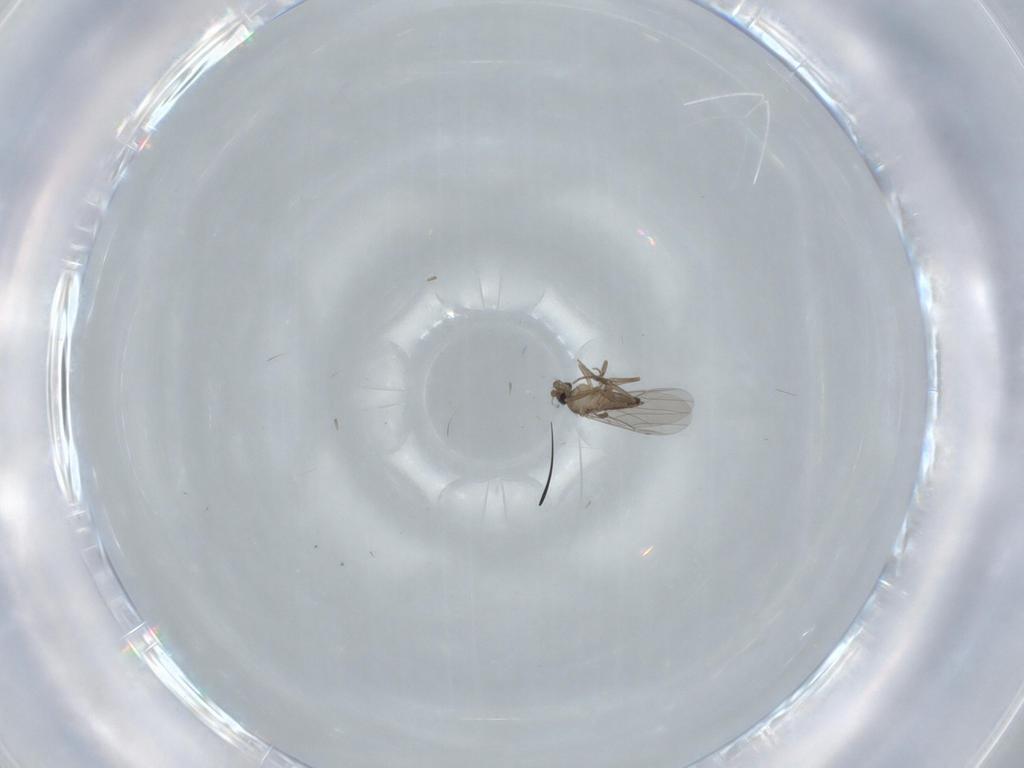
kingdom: Animalia
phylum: Arthropoda
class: Insecta
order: Diptera
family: Phoridae
